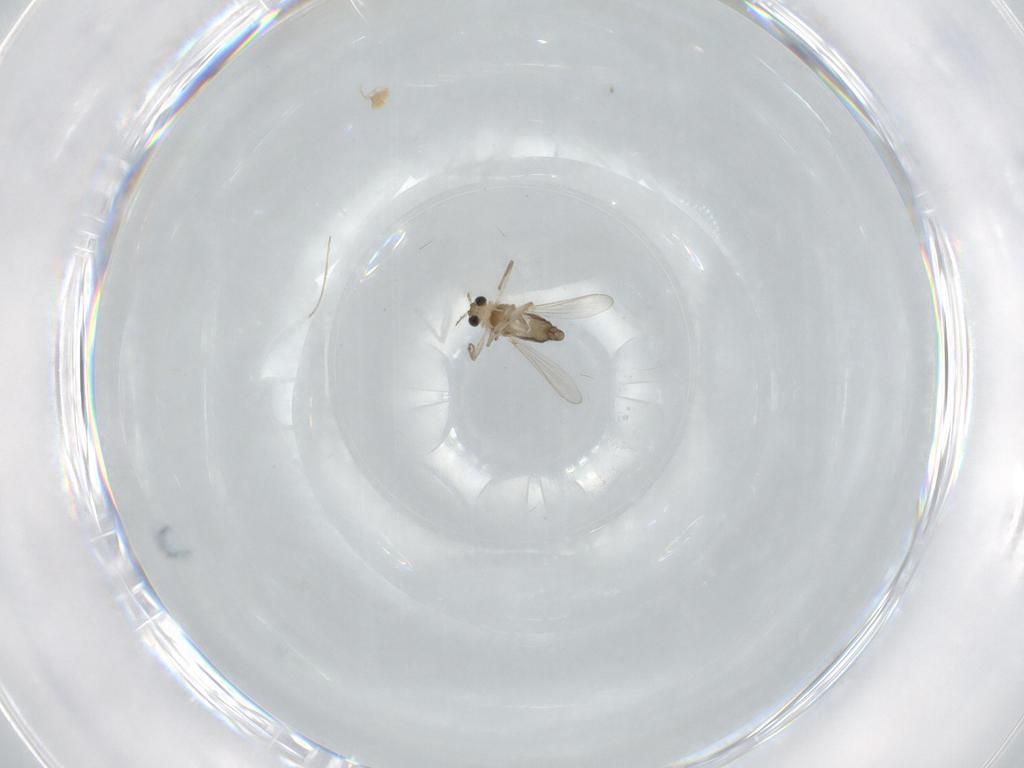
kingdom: Animalia
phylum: Arthropoda
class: Insecta
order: Diptera
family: Chironomidae
